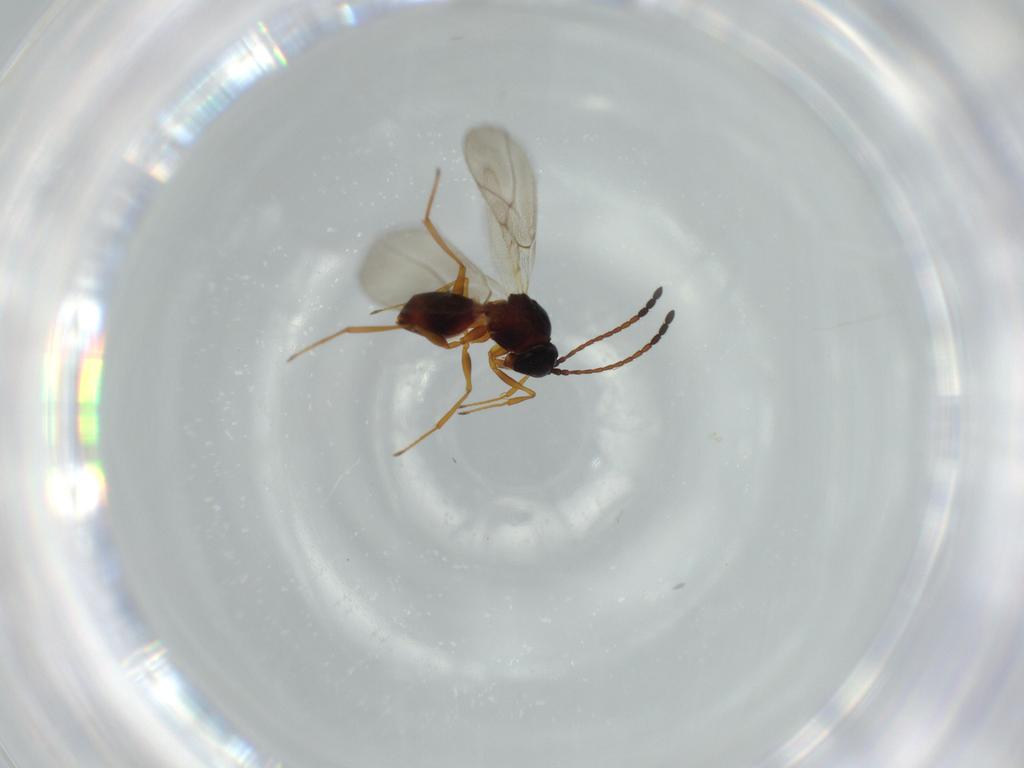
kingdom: Animalia
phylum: Arthropoda
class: Insecta
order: Hymenoptera
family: Figitidae
